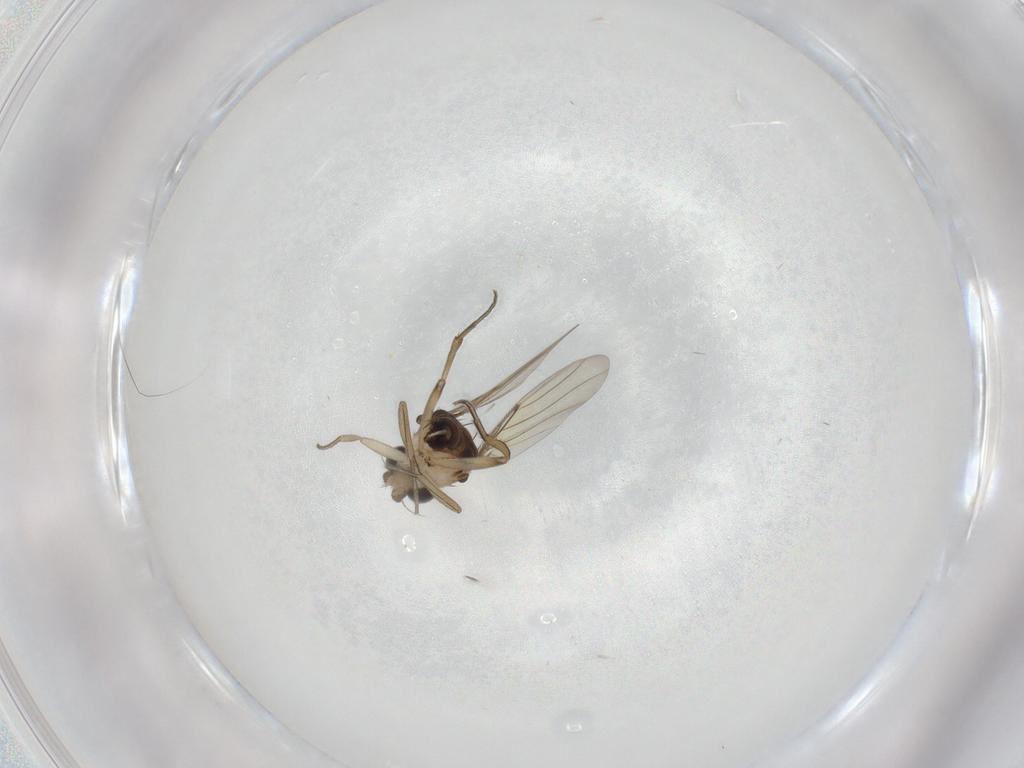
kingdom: Animalia
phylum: Arthropoda
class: Insecta
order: Diptera
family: Phoridae
